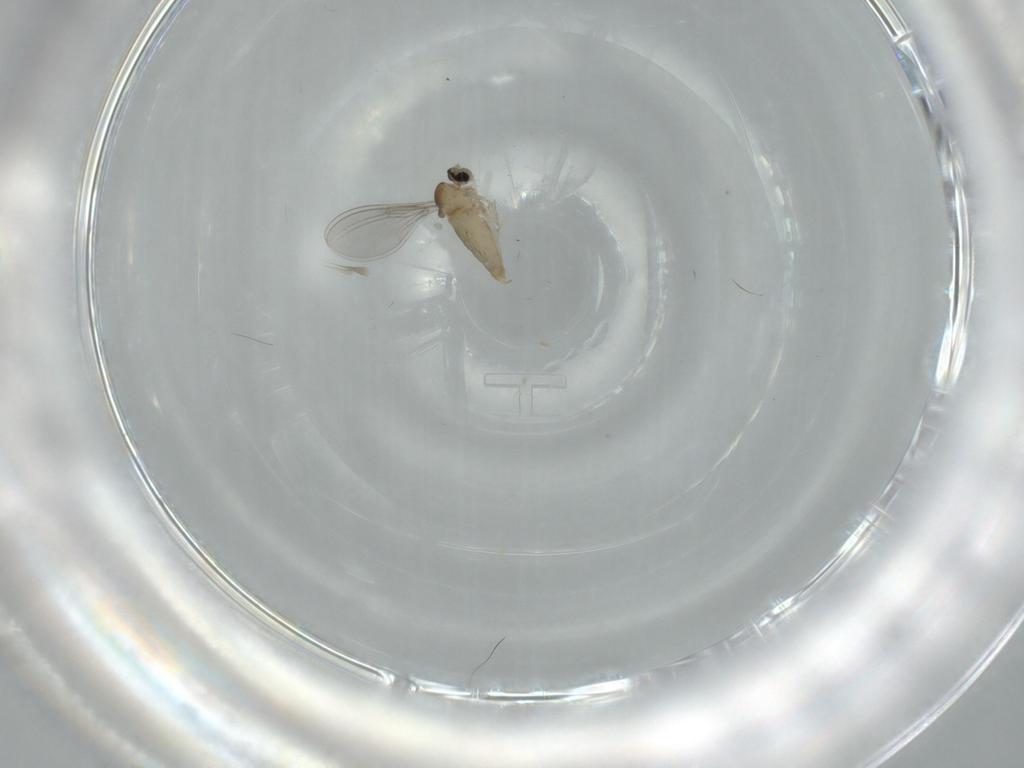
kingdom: Animalia
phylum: Arthropoda
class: Insecta
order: Diptera
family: Cecidomyiidae
